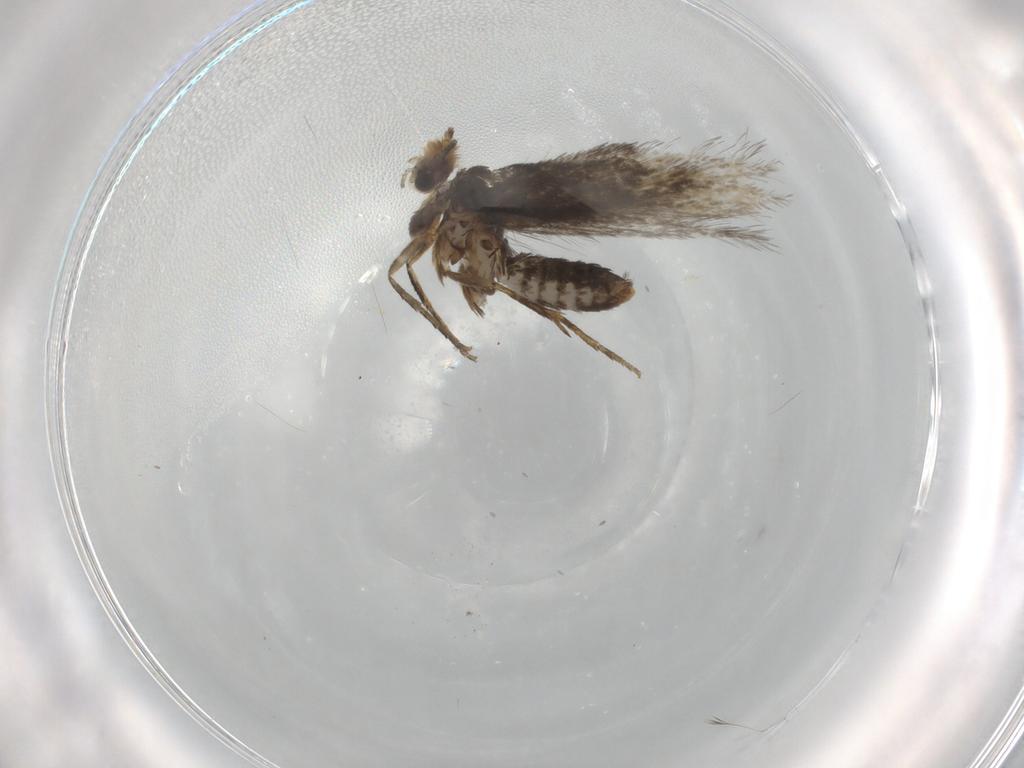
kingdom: Animalia
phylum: Arthropoda
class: Insecta
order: Lepidoptera
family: Nepticulidae
